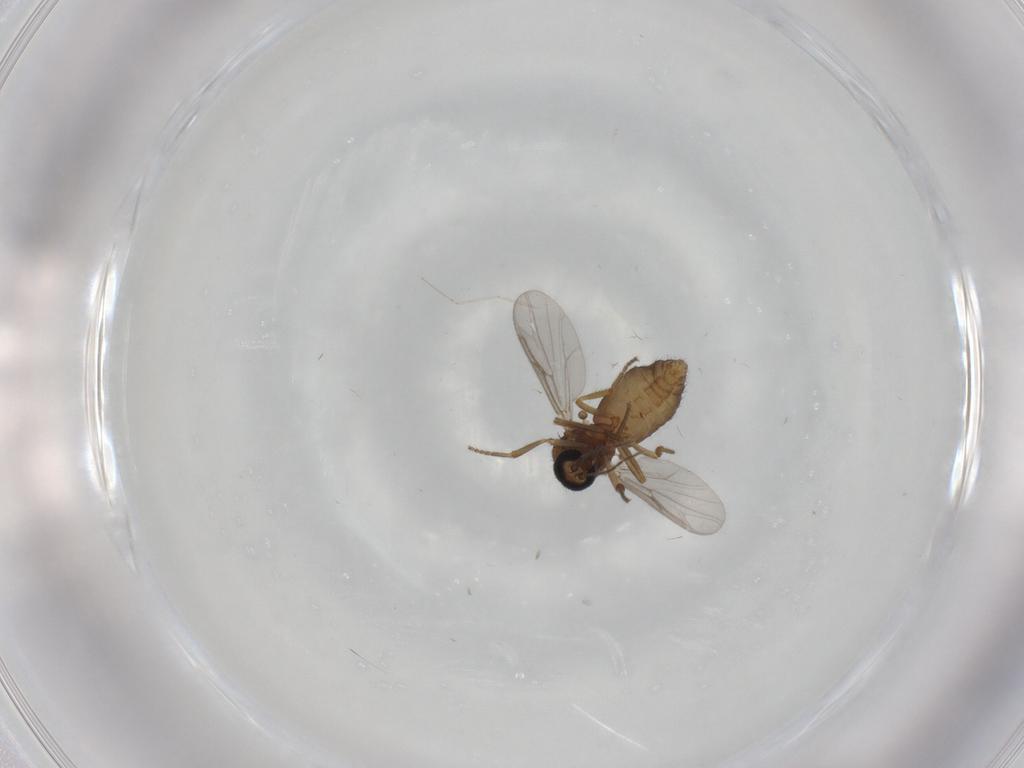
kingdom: Animalia
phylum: Arthropoda
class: Insecta
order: Diptera
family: Ceratopogonidae
